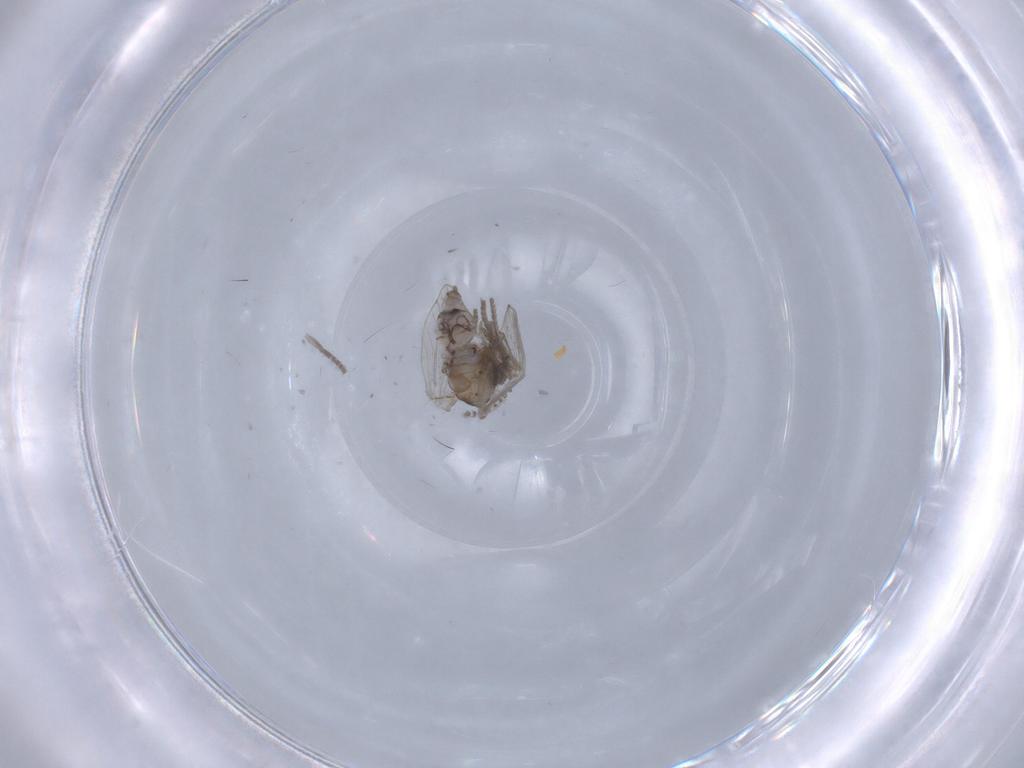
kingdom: Animalia
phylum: Arthropoda
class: Insecta
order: Diptera
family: Psychodidae
